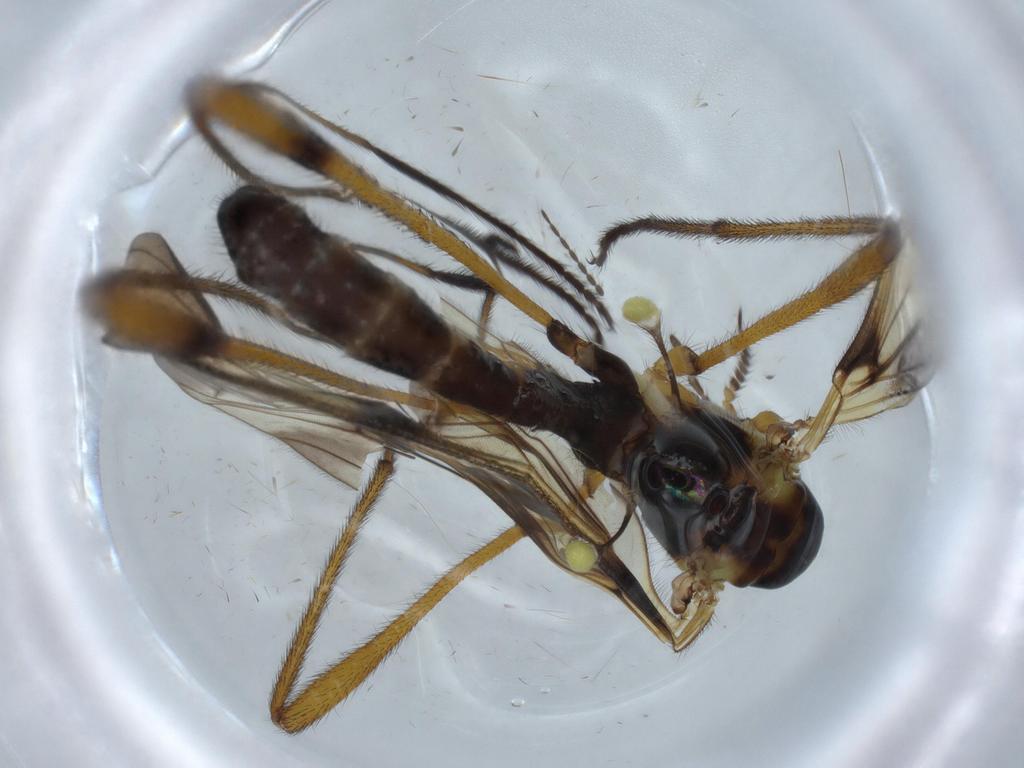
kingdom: Animalia
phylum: Arthropoda
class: Insecta
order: Diptera
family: Limoniidae
